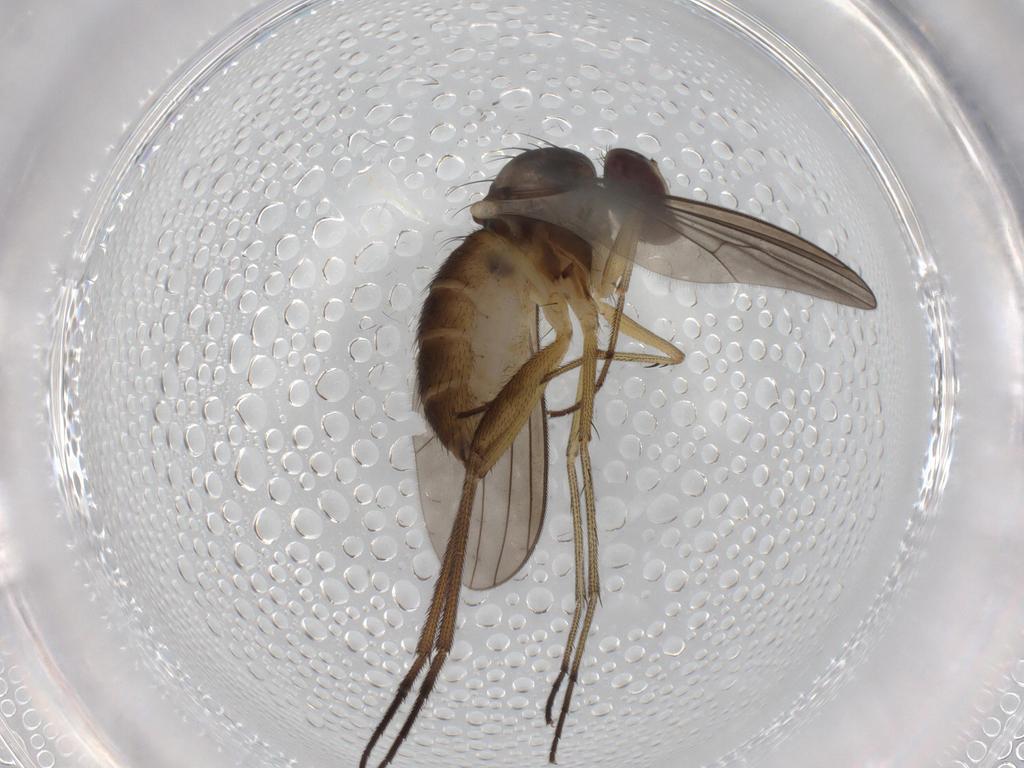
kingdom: Animalia
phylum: Arthropoda
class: Insecta
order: Diptera
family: Dolichopodidae
